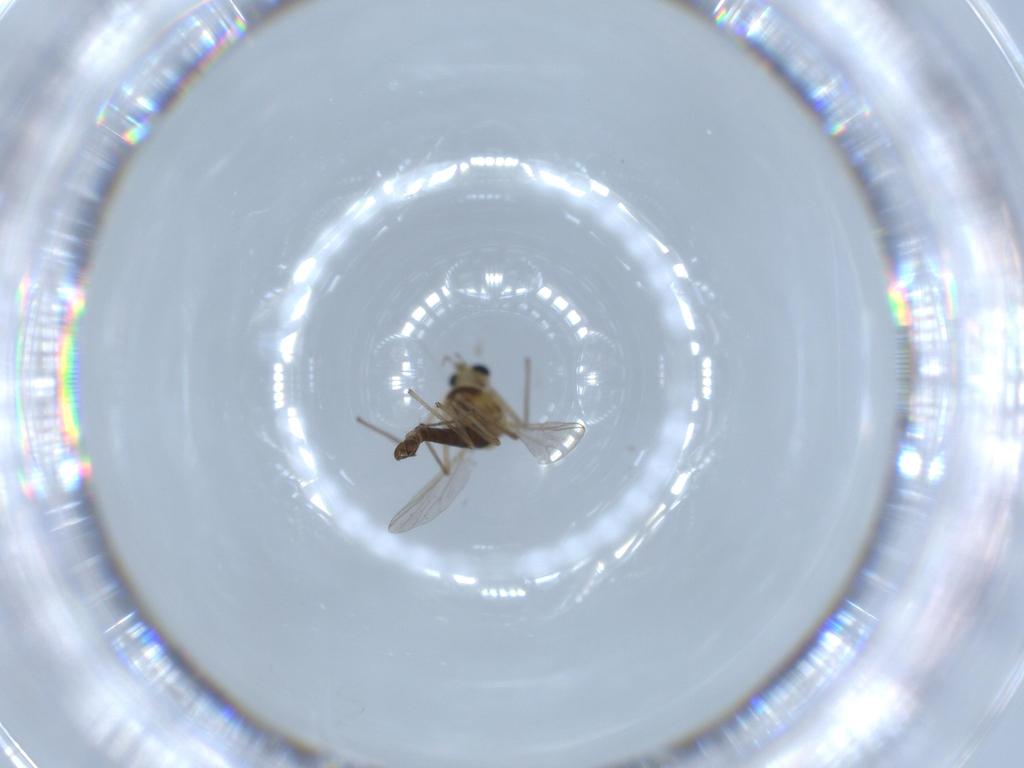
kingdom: Animalia
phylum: Arthropoda
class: Insecta
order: Diptera
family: Chironomidae
